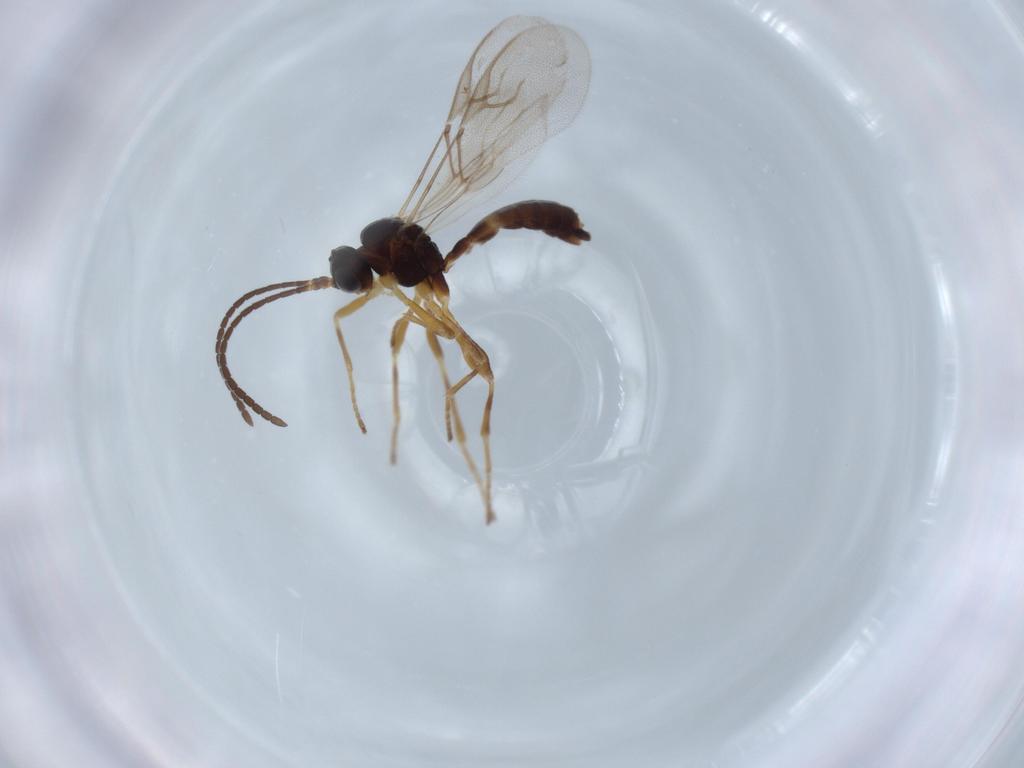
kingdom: Animalia
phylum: Arthropoda
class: Insecta
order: Hymenoptera
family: Braconidae
